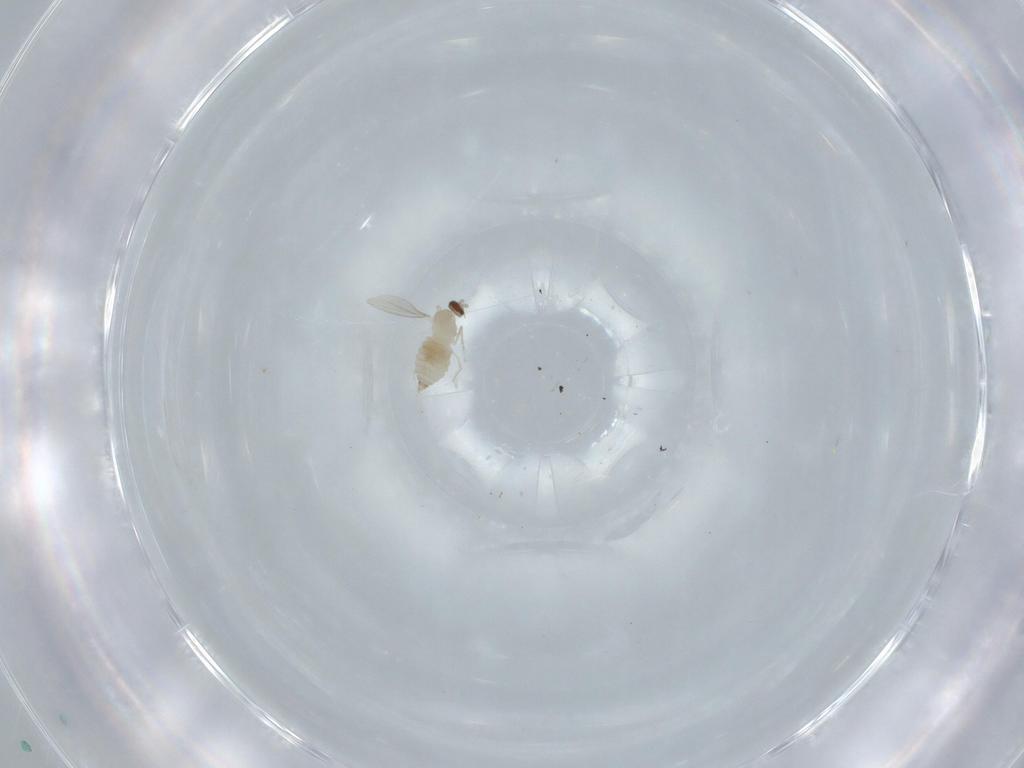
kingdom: Animalia
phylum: Arthropoda
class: Insecta
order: Diptera
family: Cecidomyiidae
